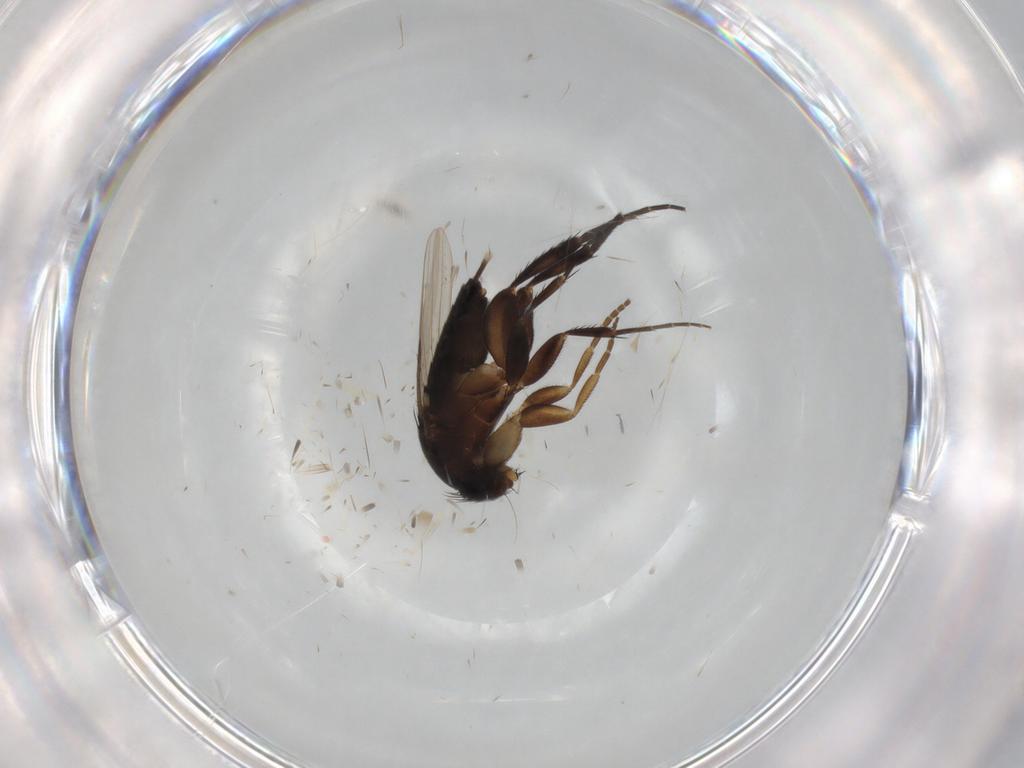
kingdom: Animalia
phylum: Arthropoda
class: Insecta
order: Diptera
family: Phoridae
